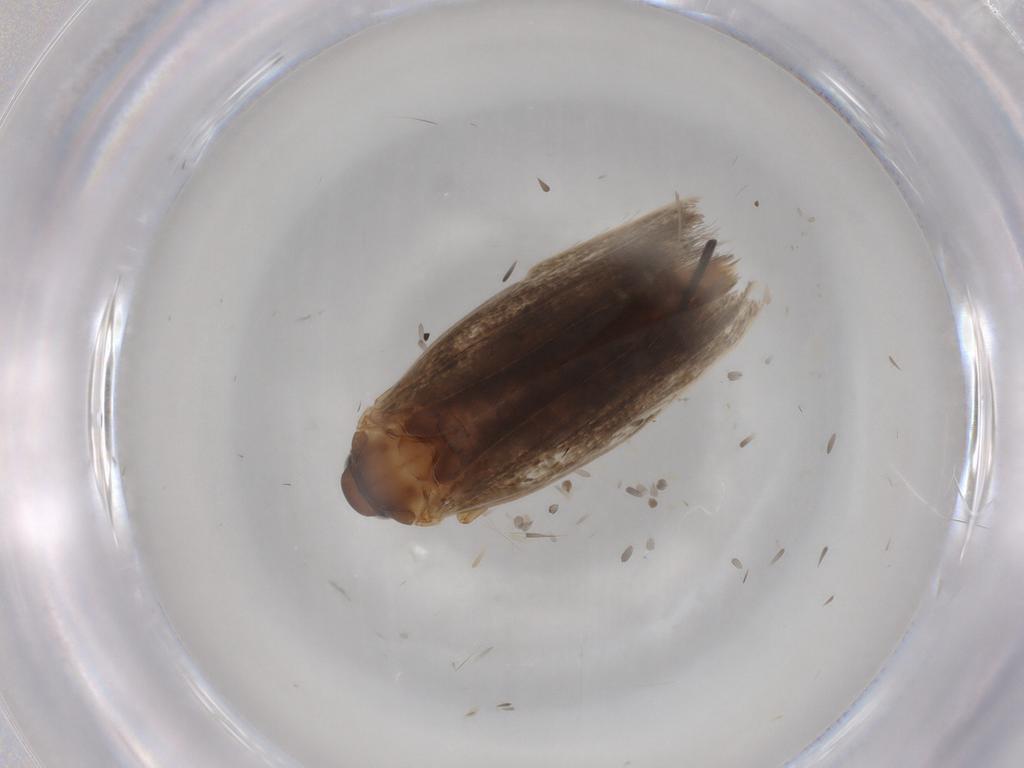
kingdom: Animalia
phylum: Arthropoda
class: Insecta
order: Lepidoptera
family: Elachistidae
